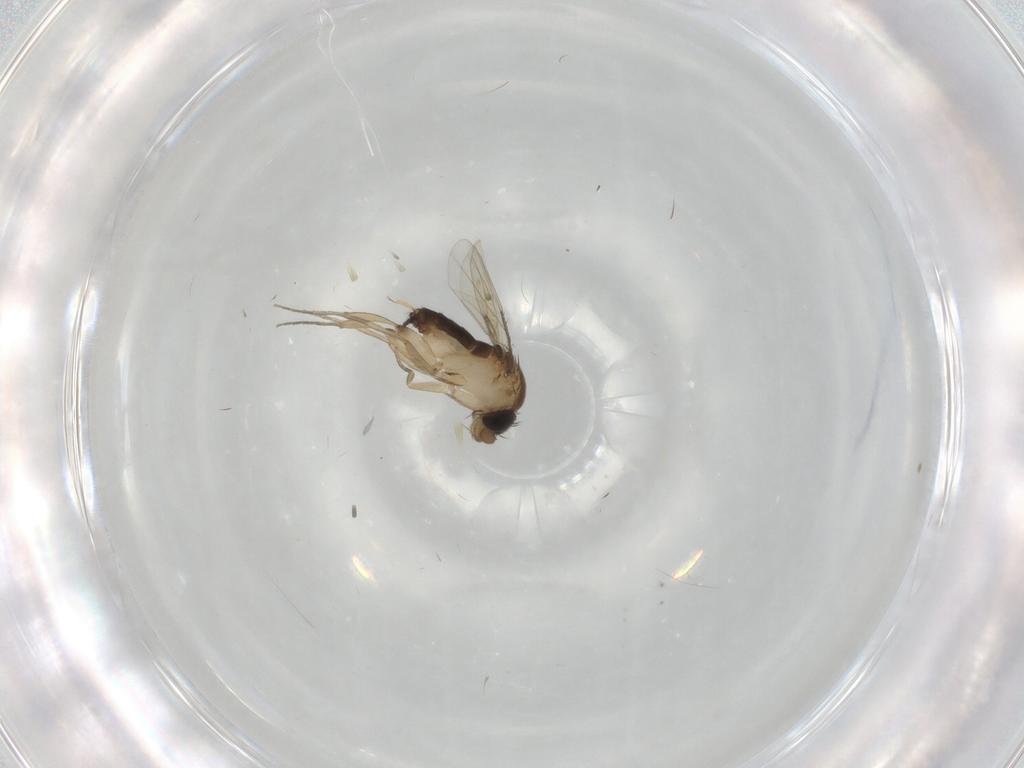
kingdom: Animalia
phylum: Arthropoda
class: Insecta
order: Diptera
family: Phoridae
